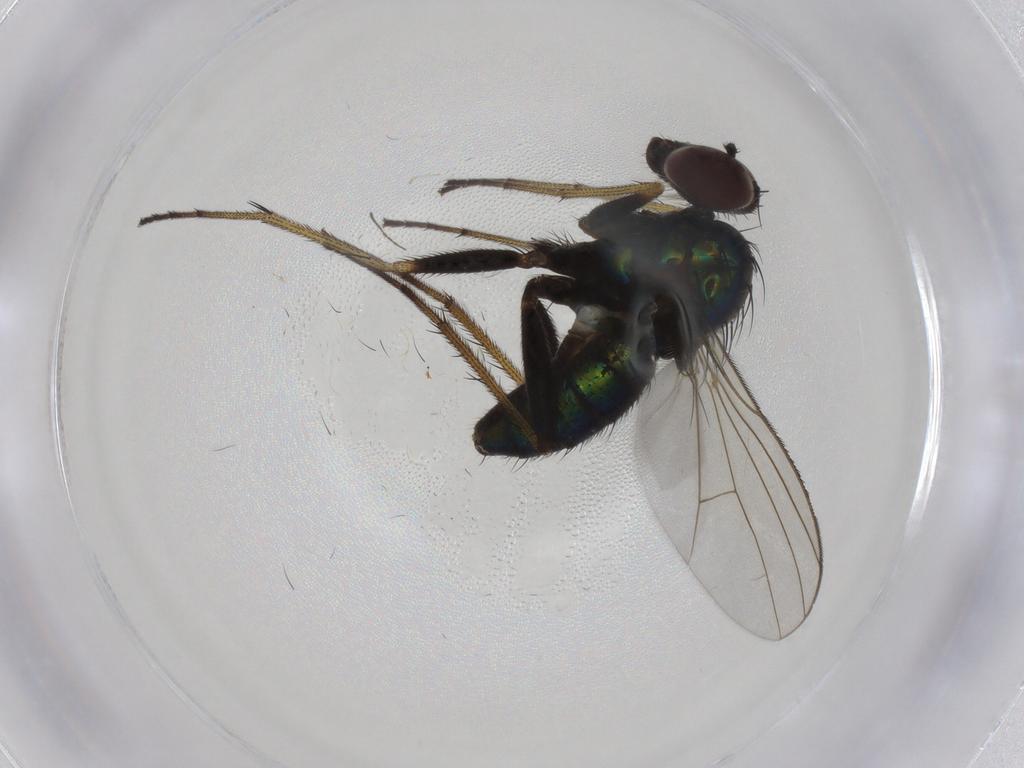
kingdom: Animalia
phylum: Arthropoda
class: Insecta
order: Diptera
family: Dolichopodidae
